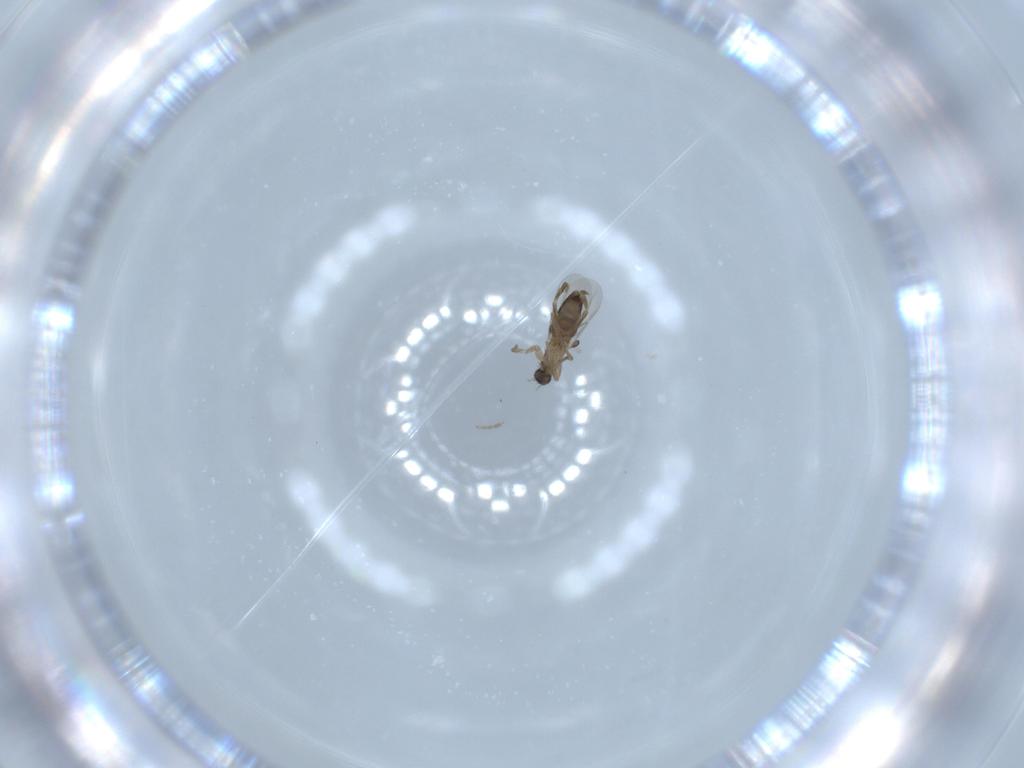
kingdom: Animalia
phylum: Arthropoda
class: Insecta
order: Diptera
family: Phoridae
